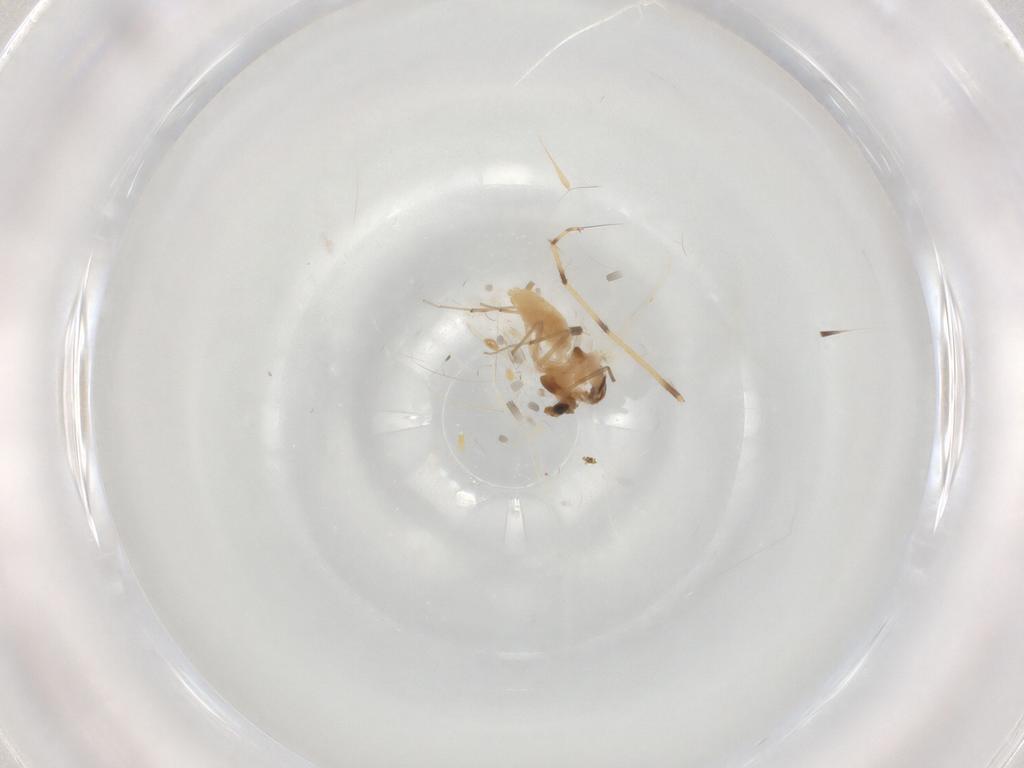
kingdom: Animalia
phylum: Arthropoda
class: Insecta
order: Diptera
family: Chironomidae
